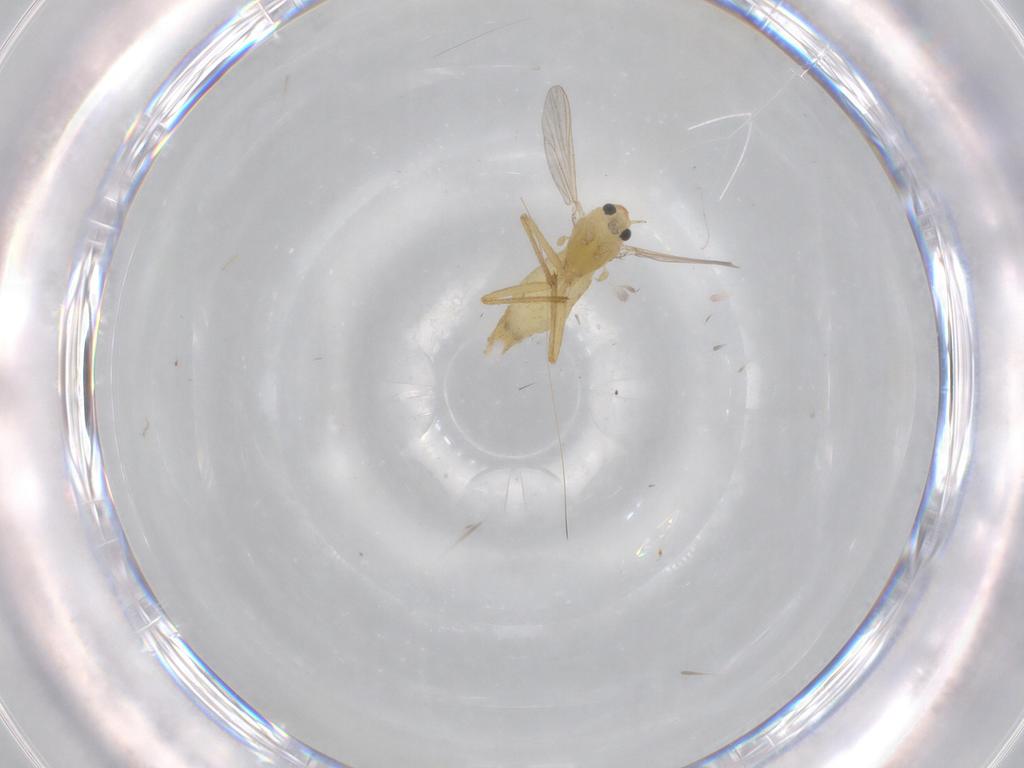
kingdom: Animalia
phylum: Arthropoda
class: Insecta
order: Diptera
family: Chironomidae
